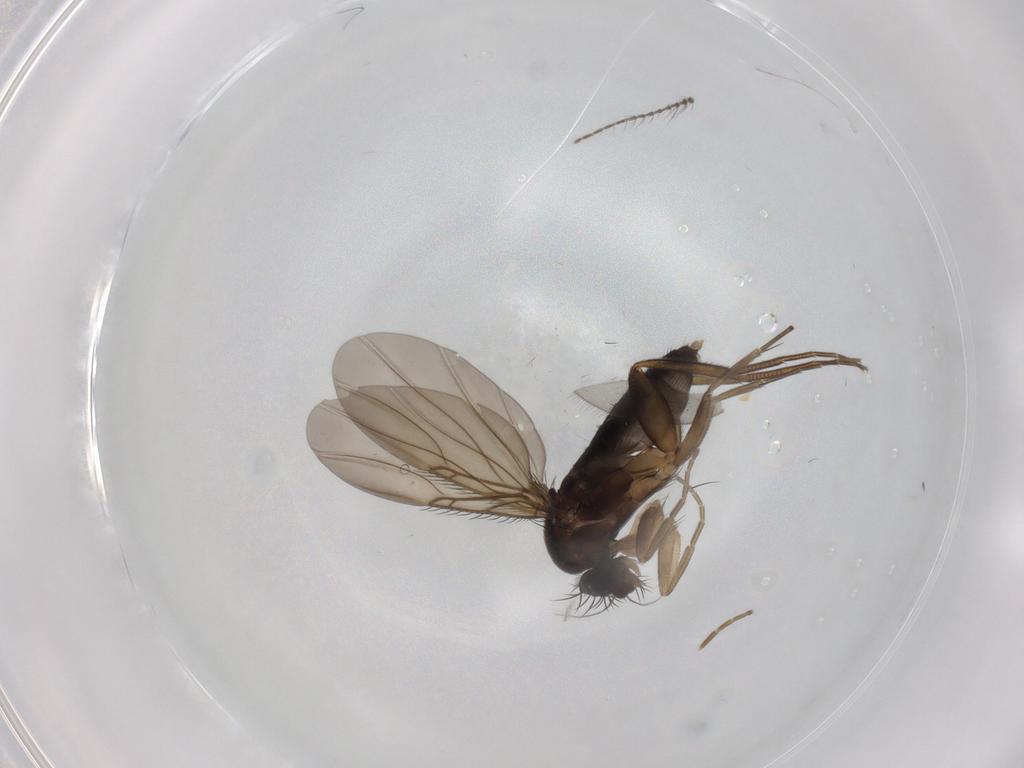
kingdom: Animalia
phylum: Arthropoda
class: Insecta
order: Diptera
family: Phoridae
